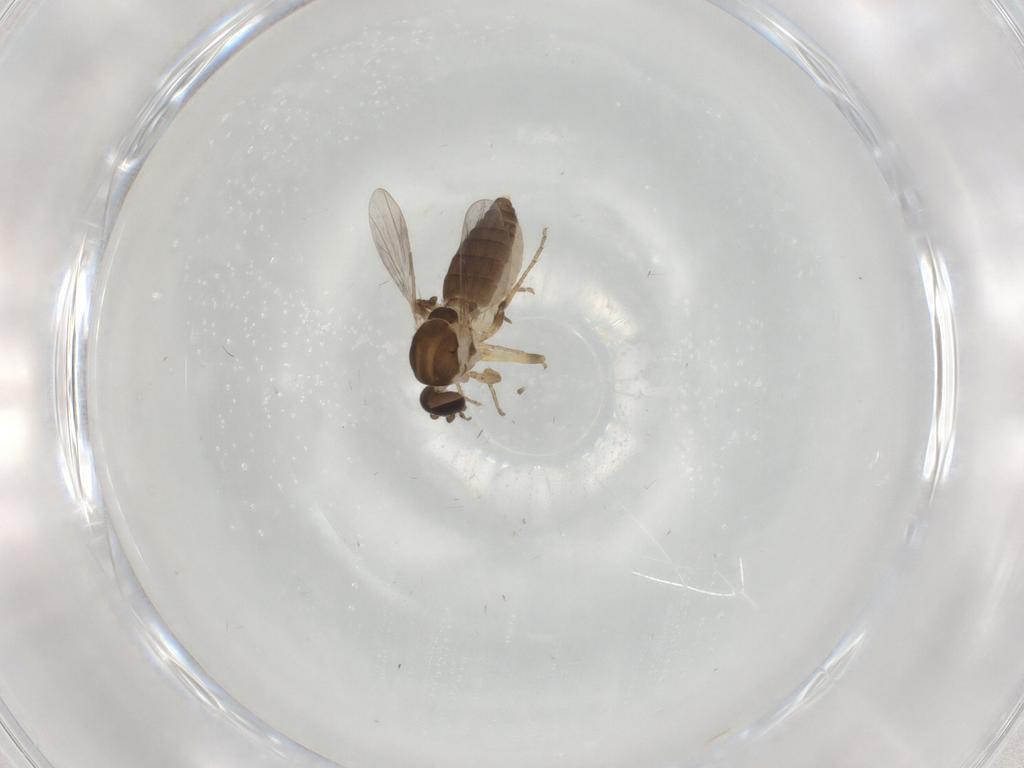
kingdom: Animalia
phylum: Arthropoda
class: Insecta
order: Diptera
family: Ceratopogonidae
